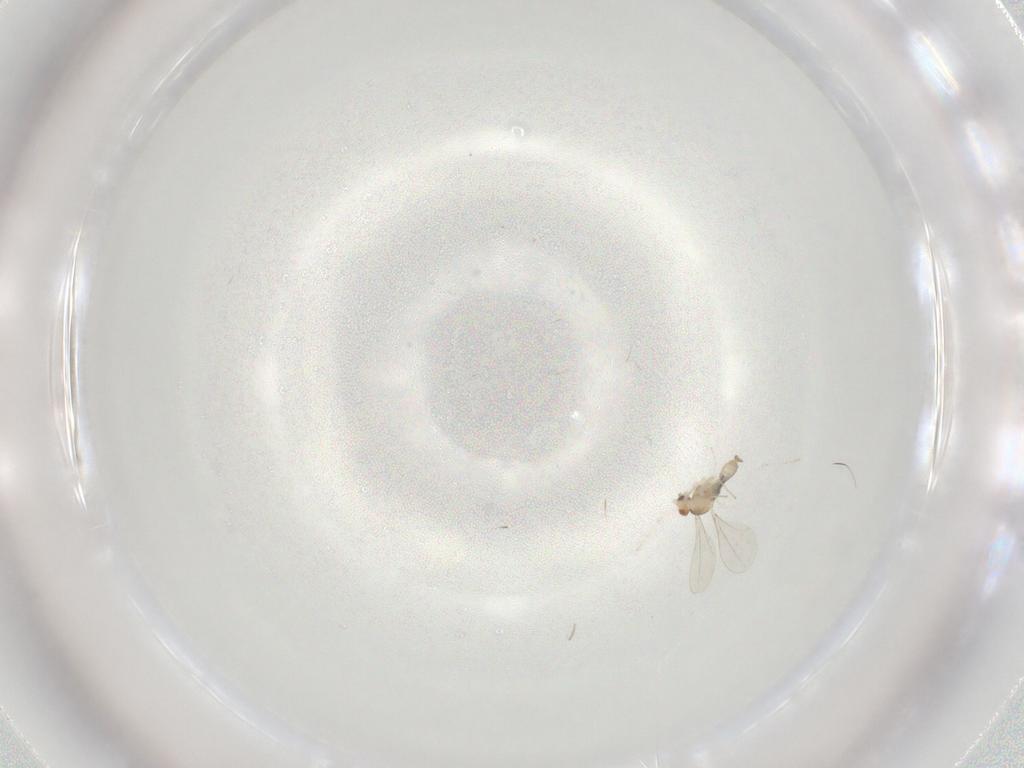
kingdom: Animalia
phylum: Arthropoda
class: Insecta
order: Diptera
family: Cecidomyiidae
